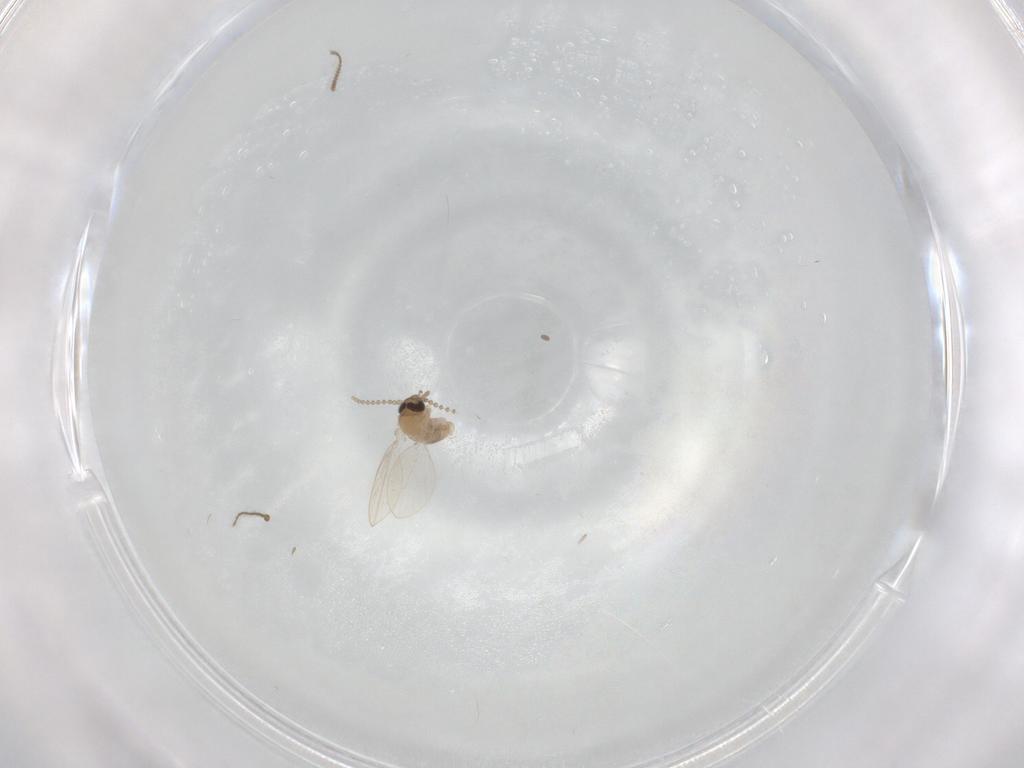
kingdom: Animalia
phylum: Arthropoda
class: Insecta
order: Diptera
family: Psychodidae
